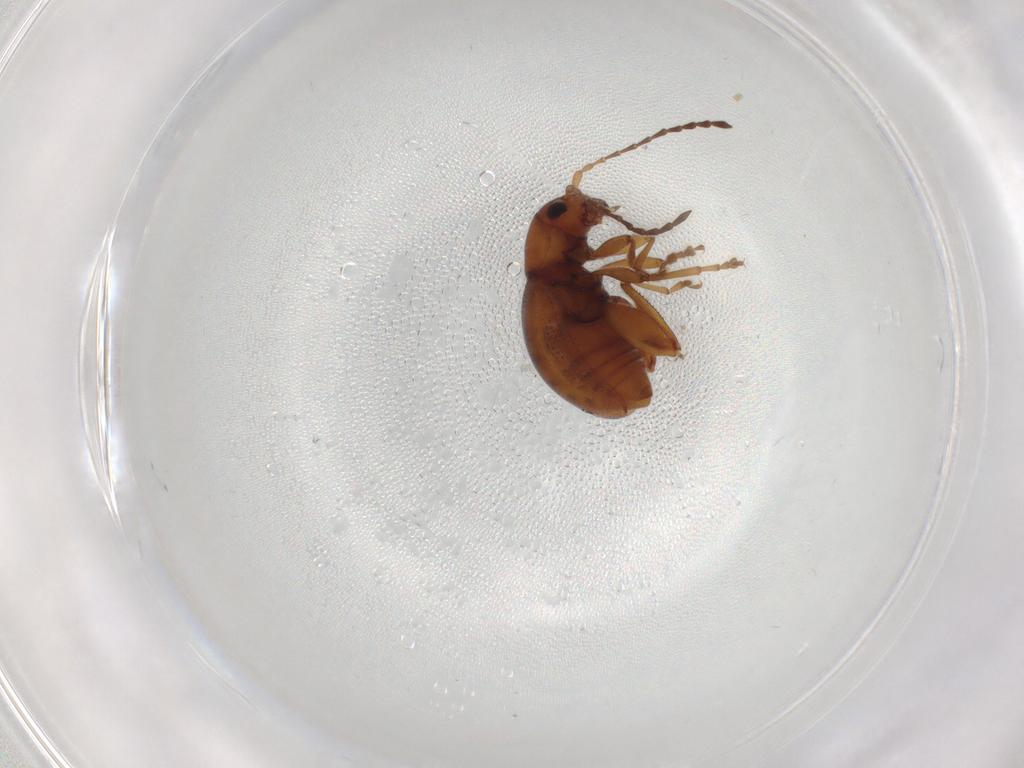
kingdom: Animalia
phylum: Arthropoda
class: Insecta
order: Coleoptera
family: Chrysomelidae
